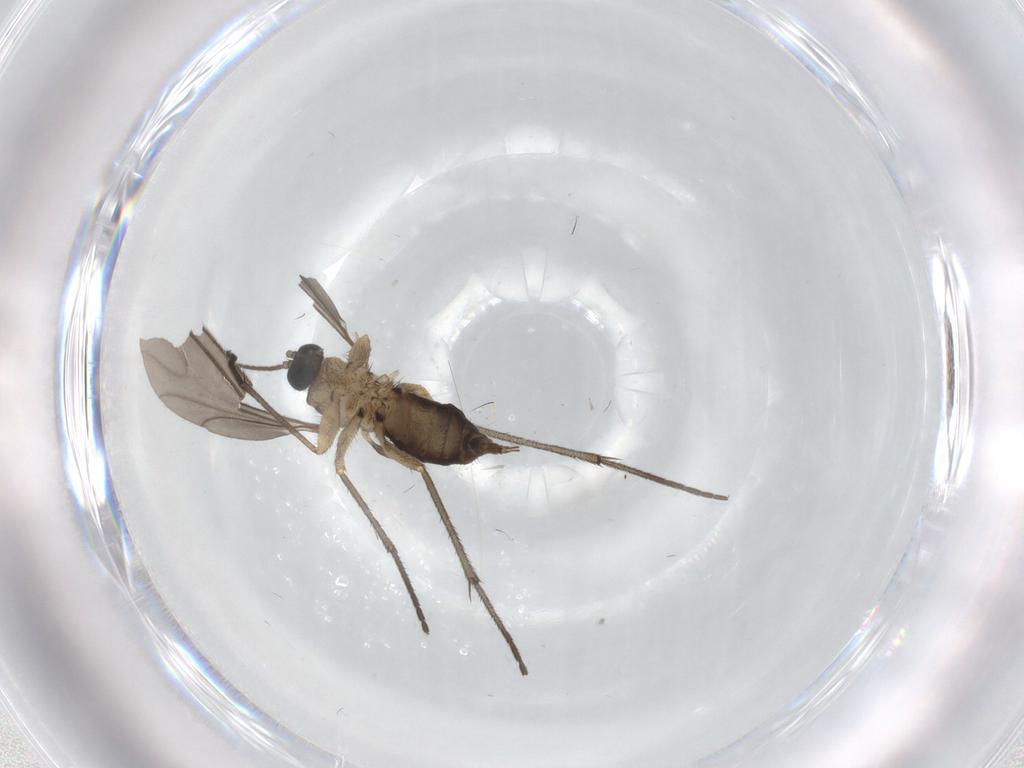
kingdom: Animalia
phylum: Arthropoda
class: Insecta
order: Diptera
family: Sciaridae
